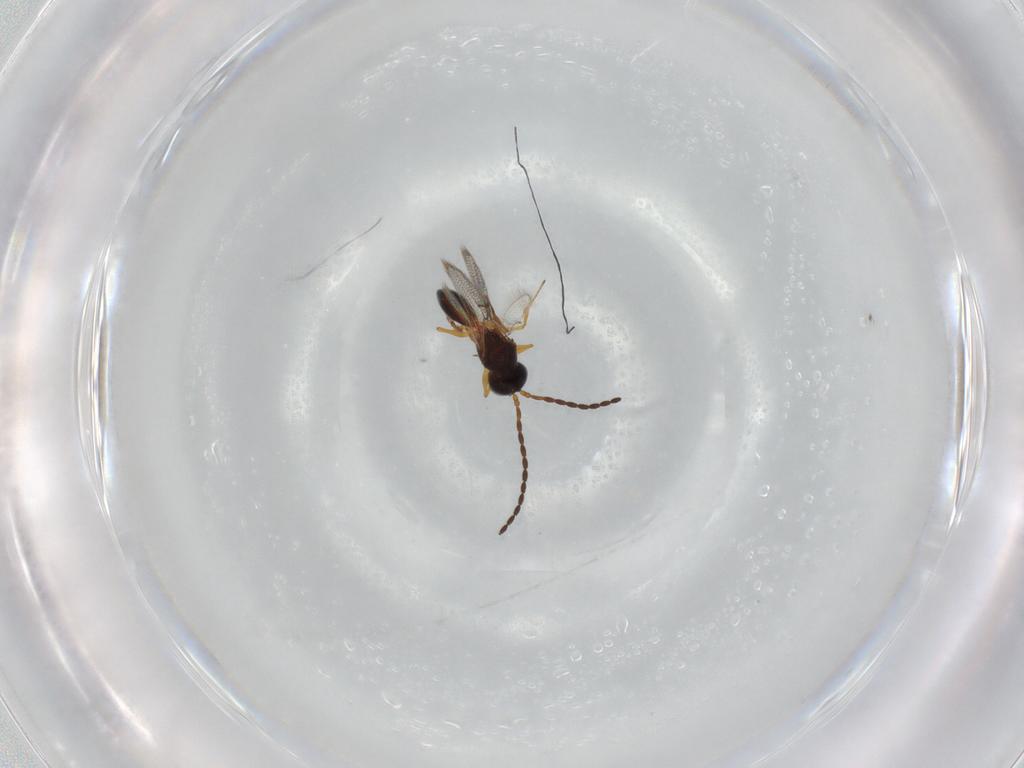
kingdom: Animalia
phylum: Arthropoda
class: Insecta
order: Hymenoptera
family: Figitidae
